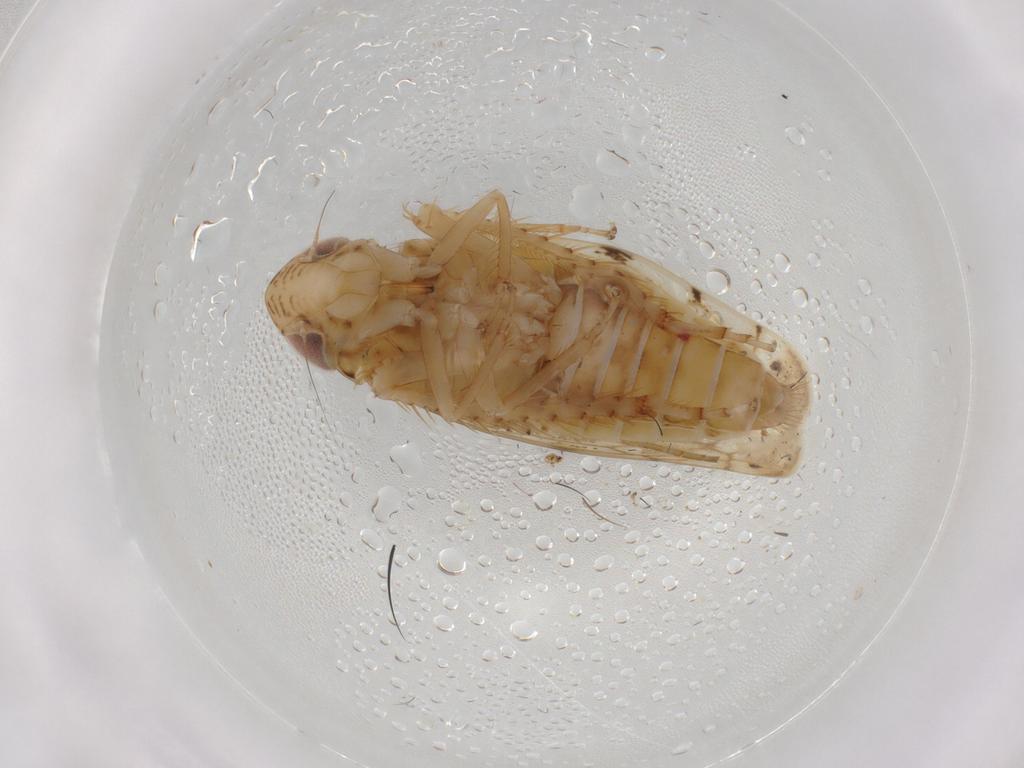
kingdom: Animalia
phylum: Arthropoda
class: Insecta
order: Hemiptera
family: Cicadellidae
